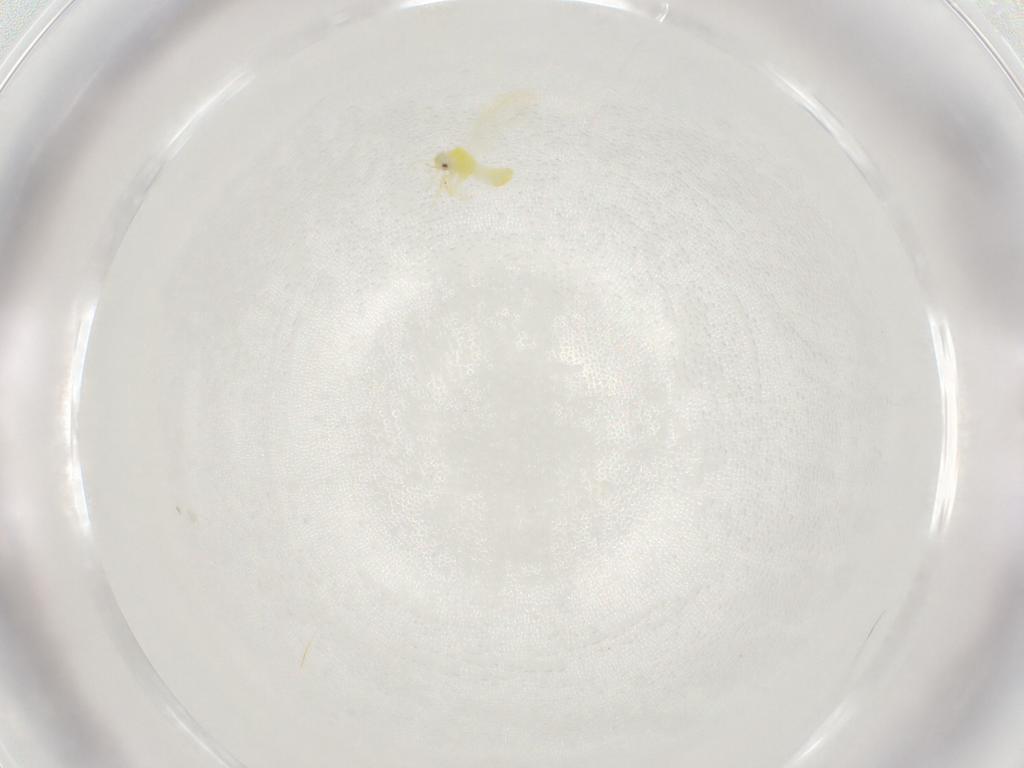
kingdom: Animalia
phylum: Arthropoda
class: Insecta
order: Hemiptera
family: Aleyrodidae
